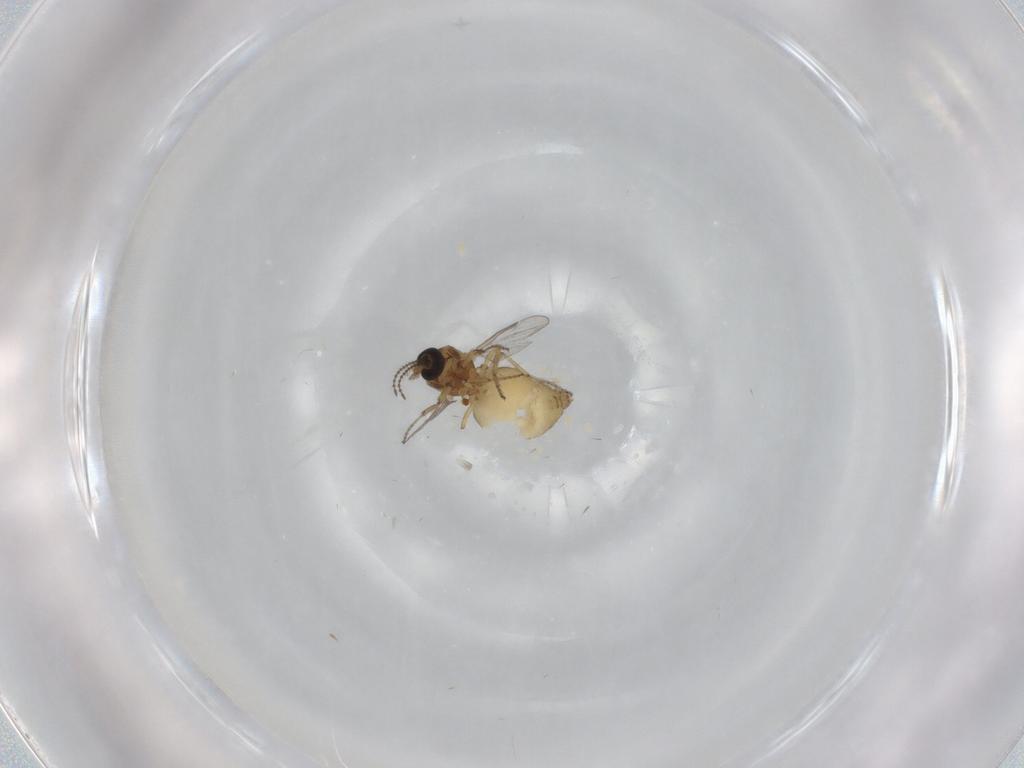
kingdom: Animalia
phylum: Arthropoda
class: Insecta
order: Diptera
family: Ceratopogonidae
